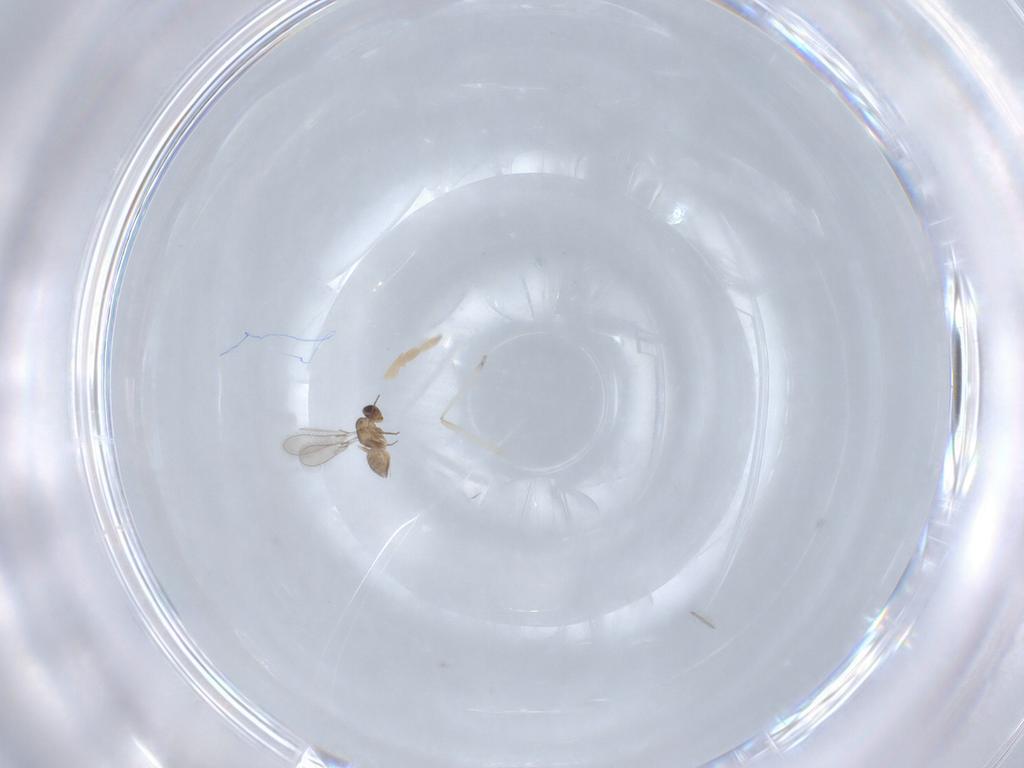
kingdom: Animalia
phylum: Arthropoda
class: Insecta
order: Hymenoptera
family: Mymaridae
